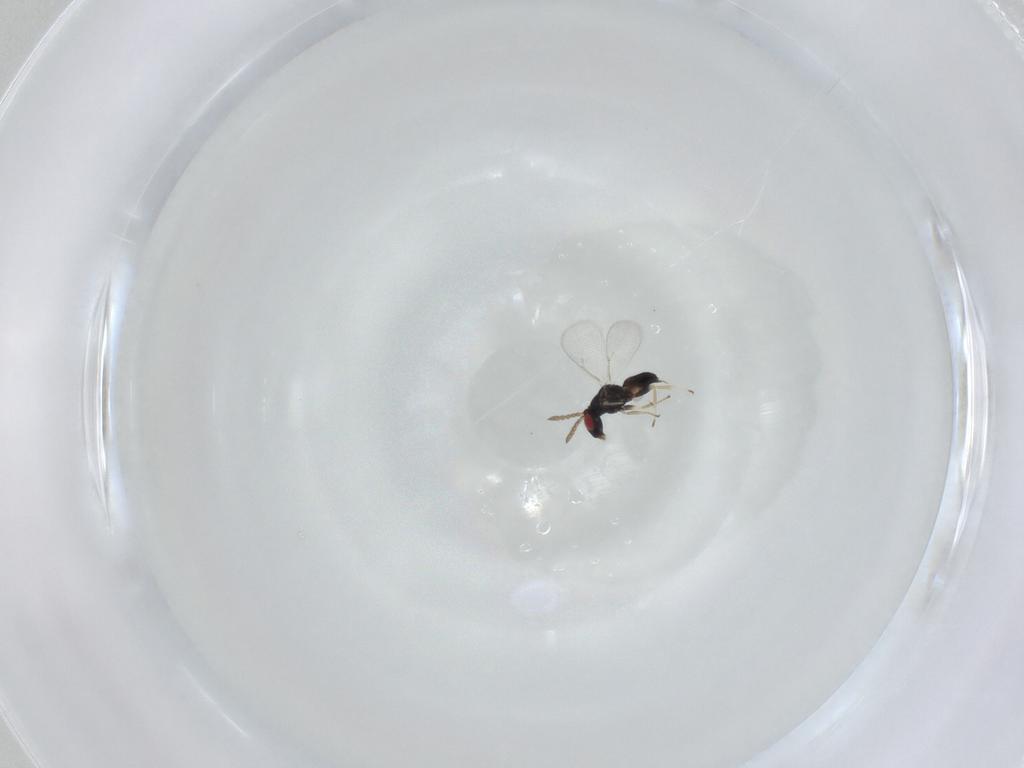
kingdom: Animalia
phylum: Arthropoda
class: Insecta
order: Hymenoptera
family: Eulophidae
